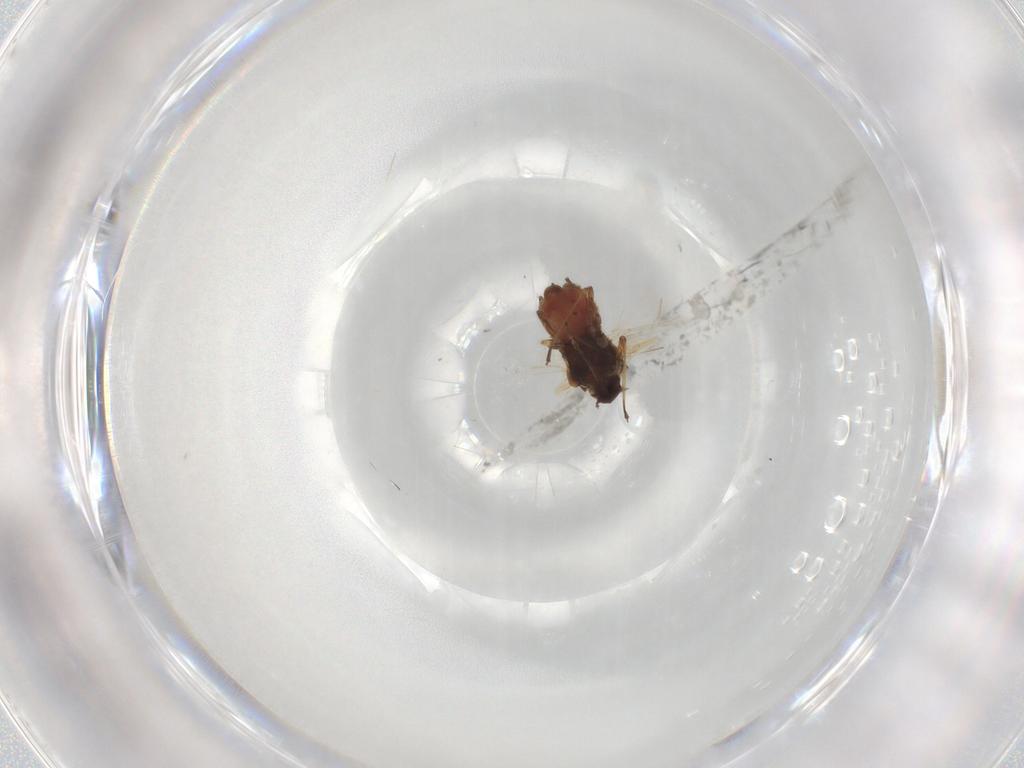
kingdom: Animalia
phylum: Arthropoda
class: Insecta
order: Hemiptera
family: Aphididae
